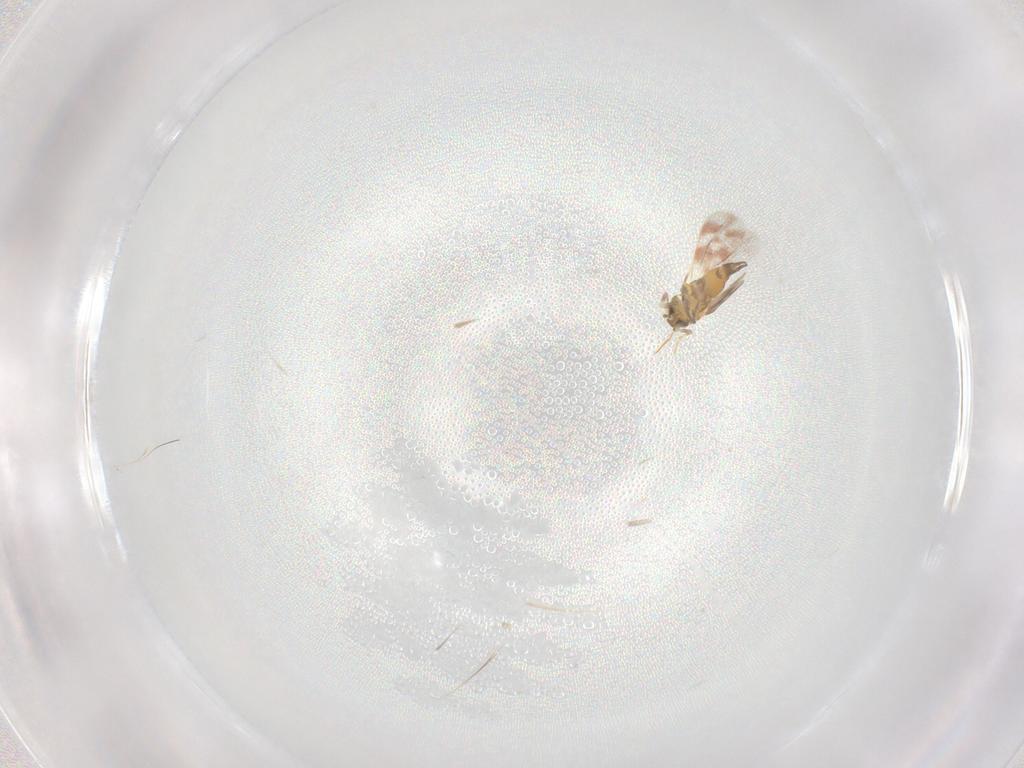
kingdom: Animalia
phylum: Arthropoda
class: Insecta
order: Hemiptera
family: Aleyrodidae
